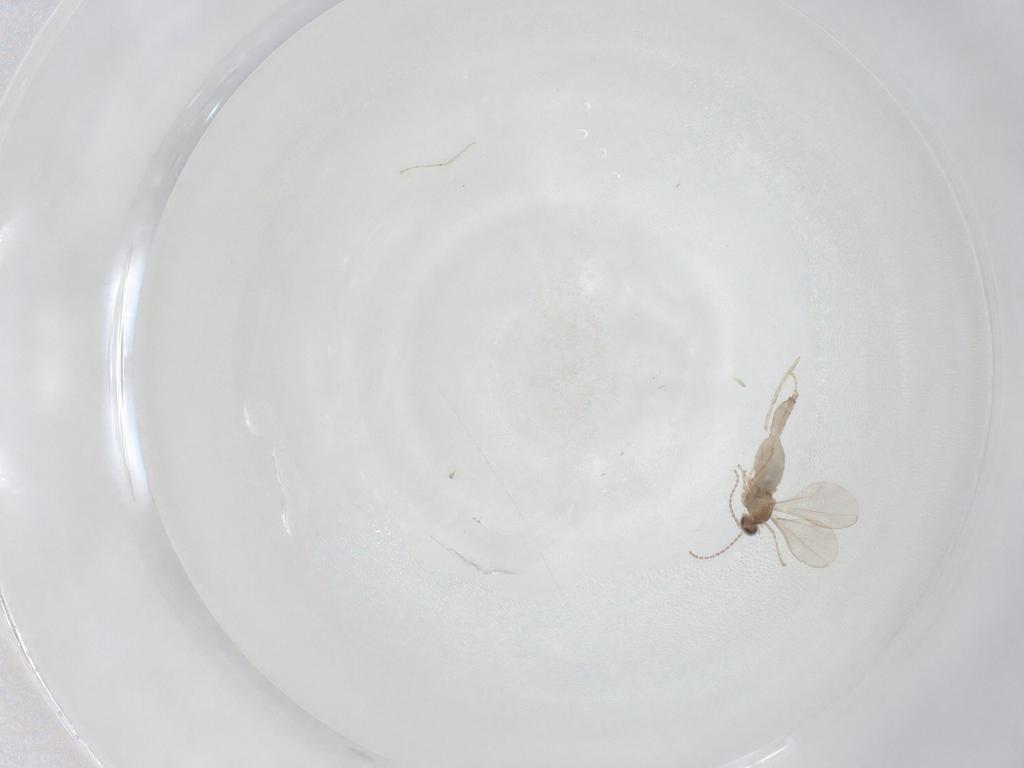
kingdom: Animalia
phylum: Arthropoda
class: Insecta
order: Diptera
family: Cecidomyiidae
